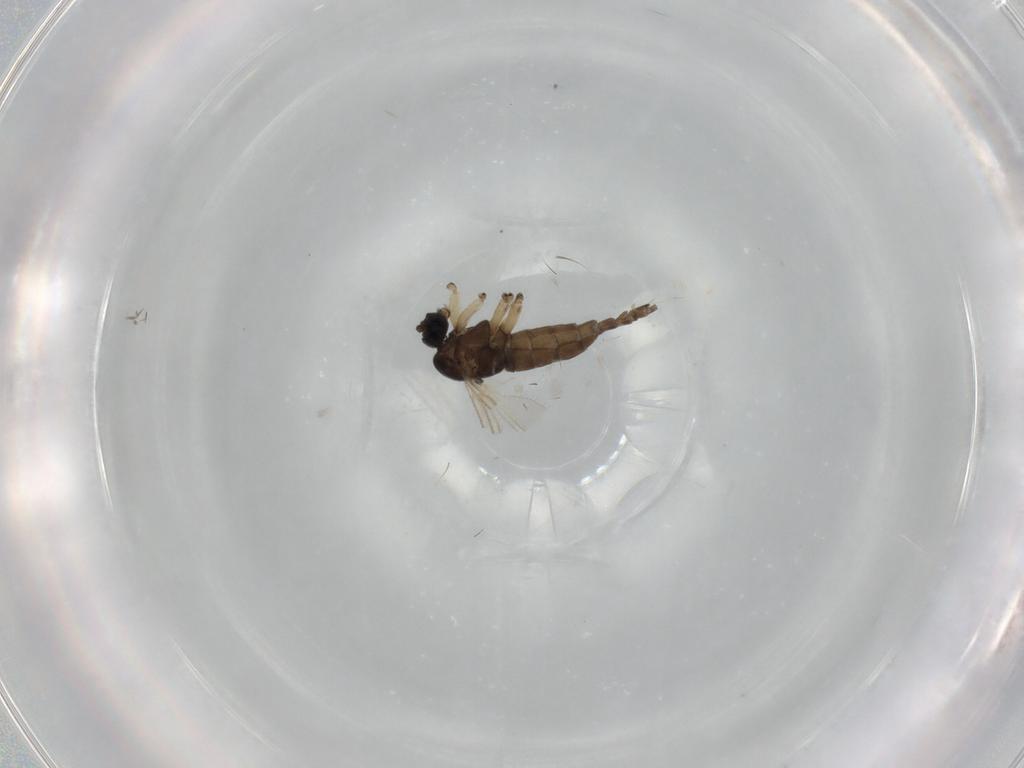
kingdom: Animalia
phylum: Arthropoda
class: Insecta
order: Diptera
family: Sciaridae
